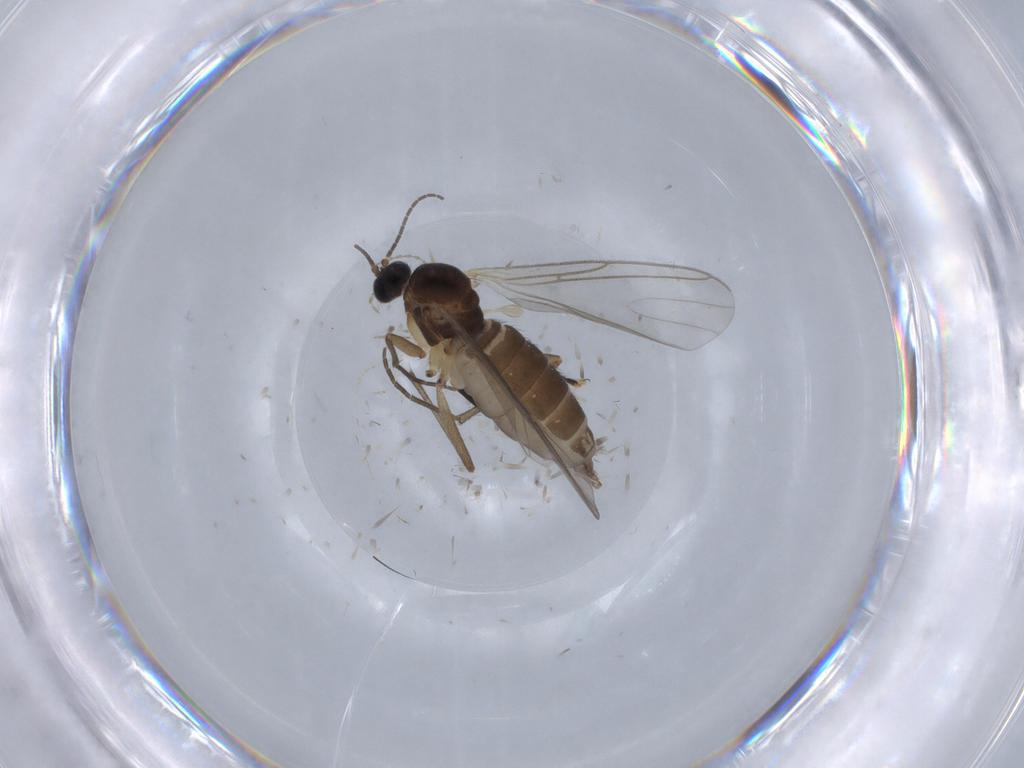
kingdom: Animalia
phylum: Arthropoda
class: Insecta
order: Diptera
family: Sciaridae
